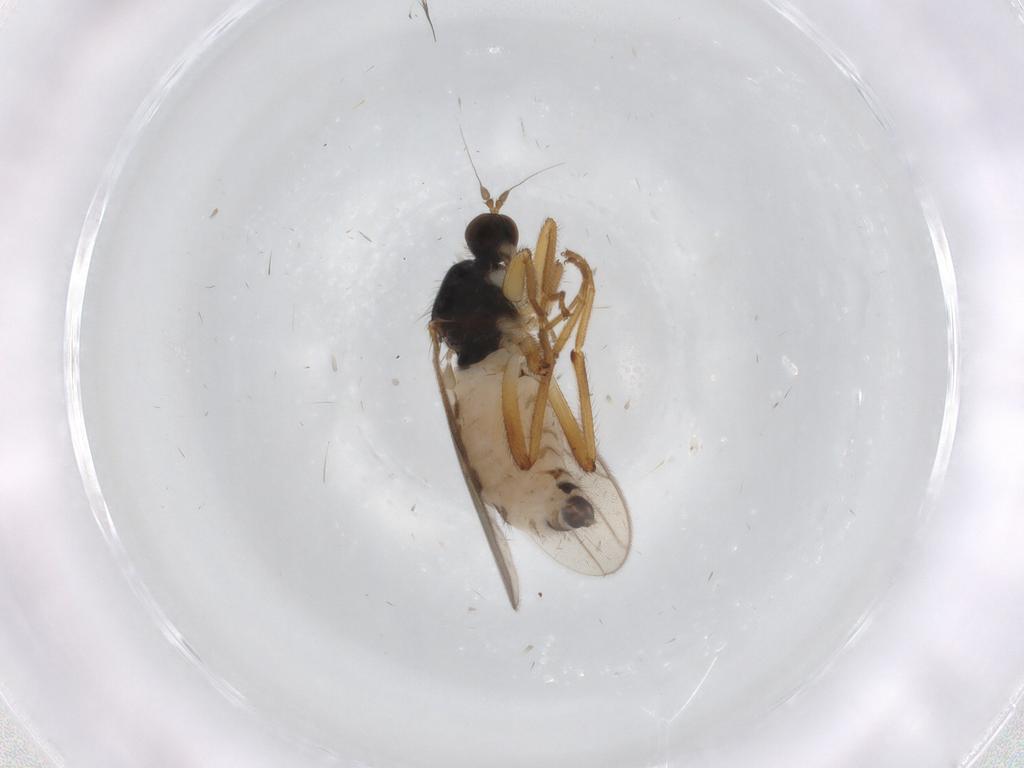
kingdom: Animalia
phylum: Arthropoda
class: Insecta
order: Diptera
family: Hybotidae
